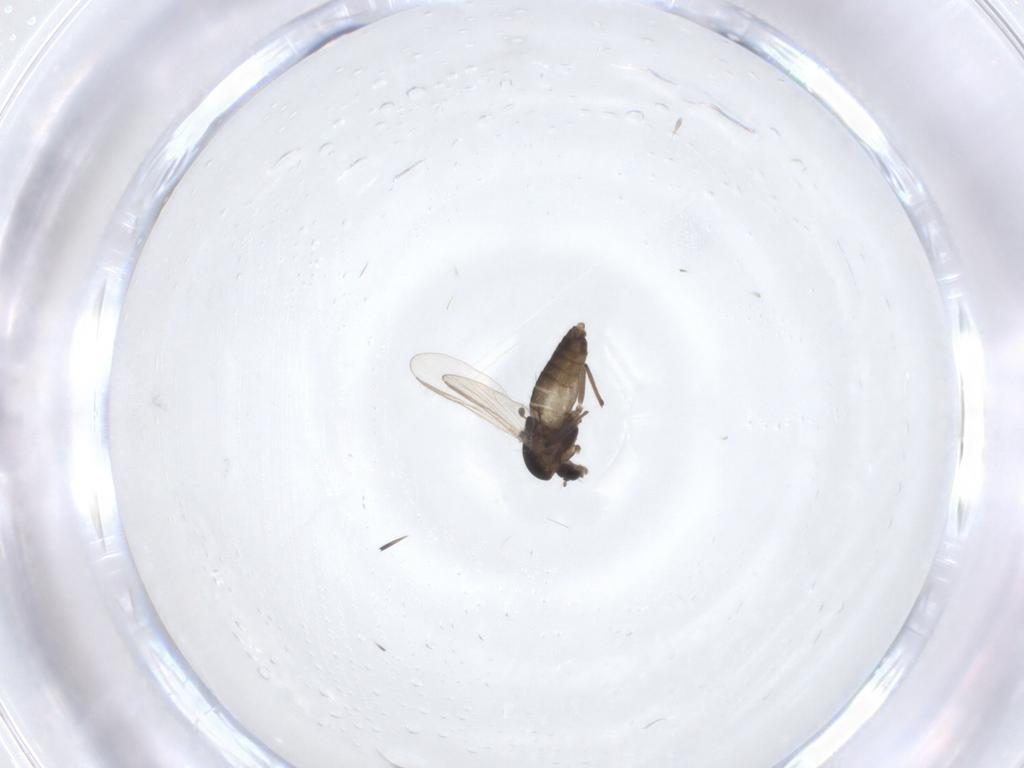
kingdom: Animalia
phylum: Arthropoda
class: Insecta
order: Diptera
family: Chironomidae
